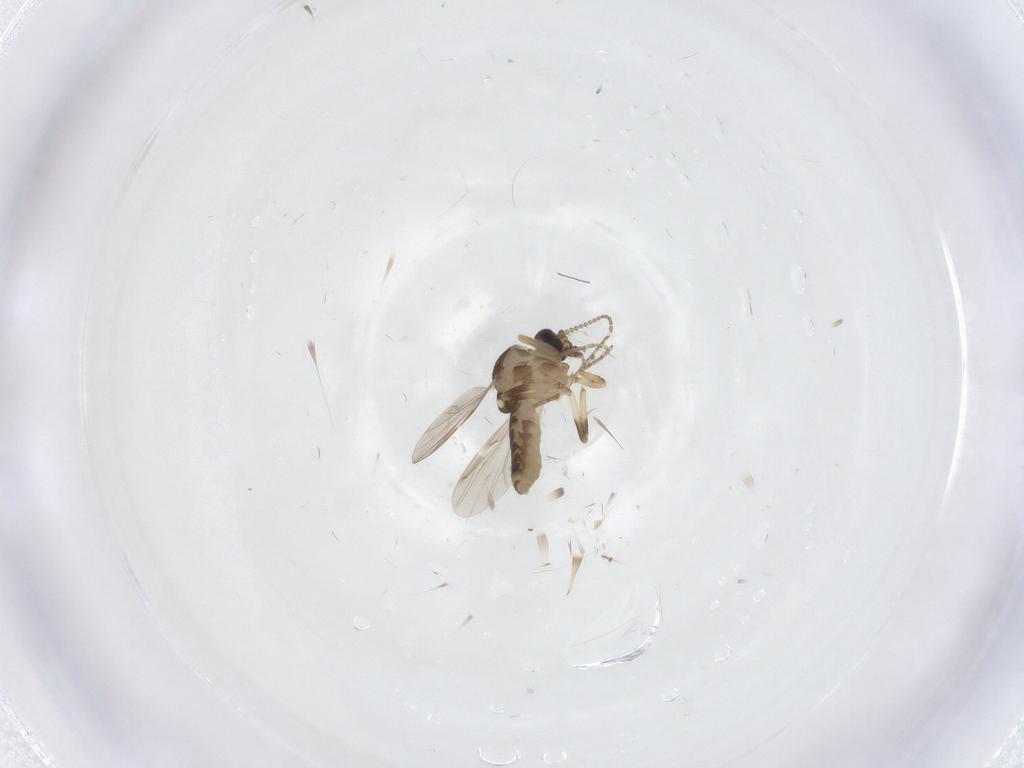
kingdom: Animalia
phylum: Arthropoda
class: Insecta
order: Diptera
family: Ceratopogonidae
